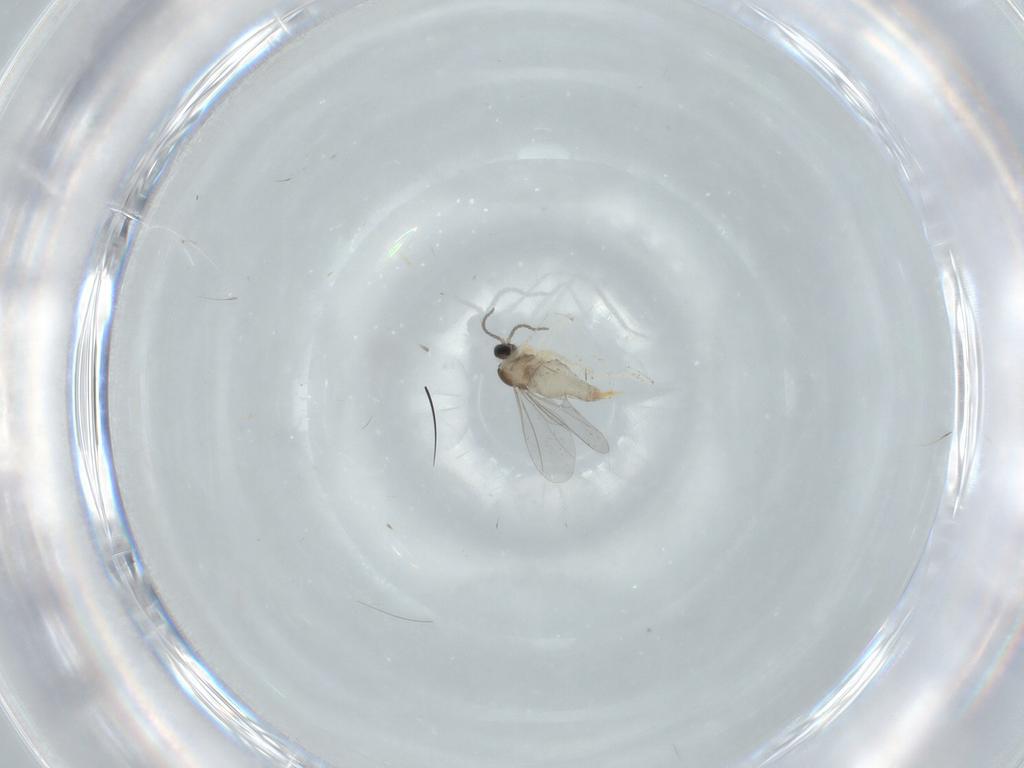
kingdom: Animalia
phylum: Arthropoda
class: Insecta
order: Diptera
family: Cecidomyiidae
